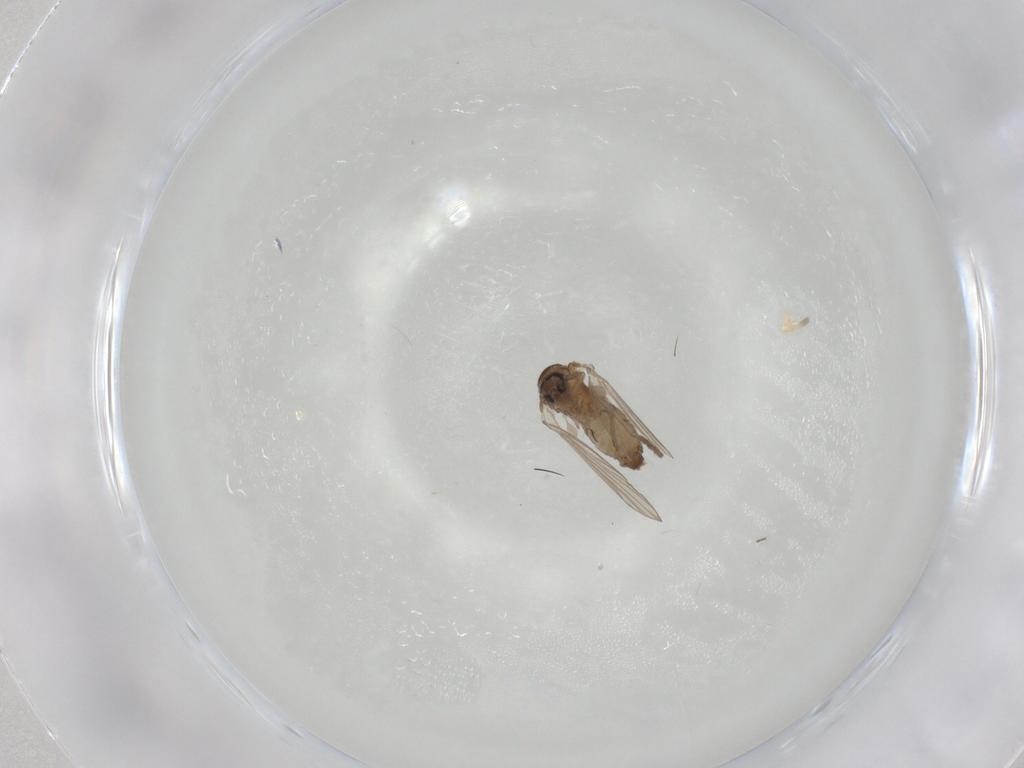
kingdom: Animalia
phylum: Arthropoda
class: Insecta
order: Diptera
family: Psychodidae
